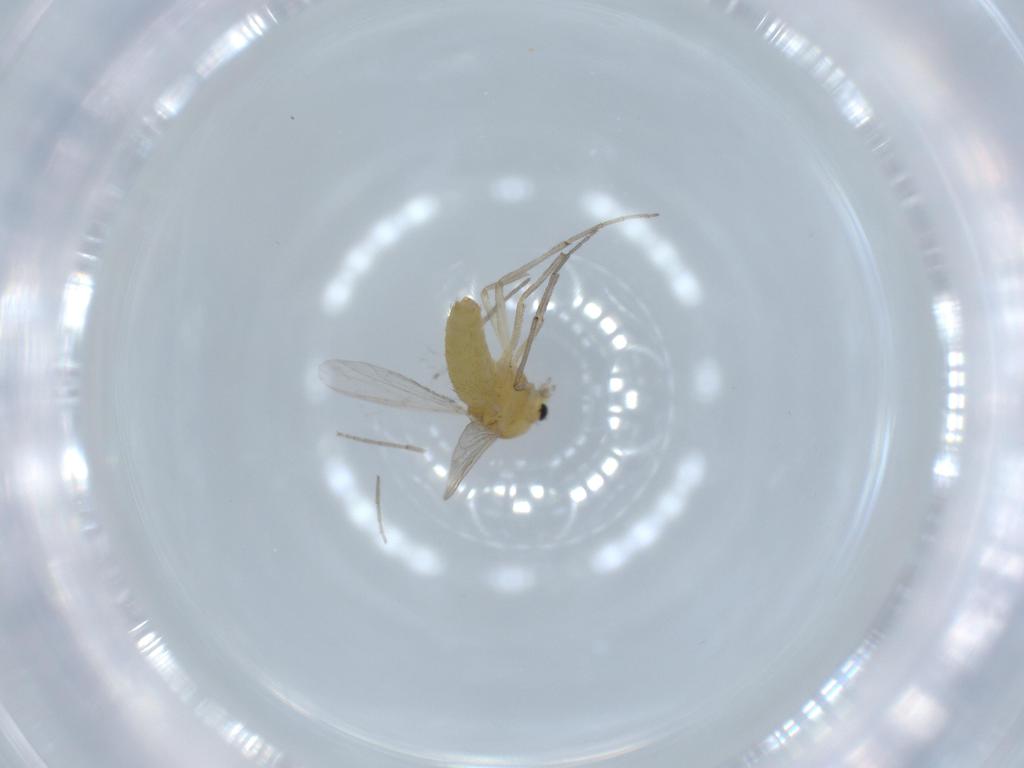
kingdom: Animalia
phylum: Arthropoda
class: Insecta
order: Diptera
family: Chironomidae
